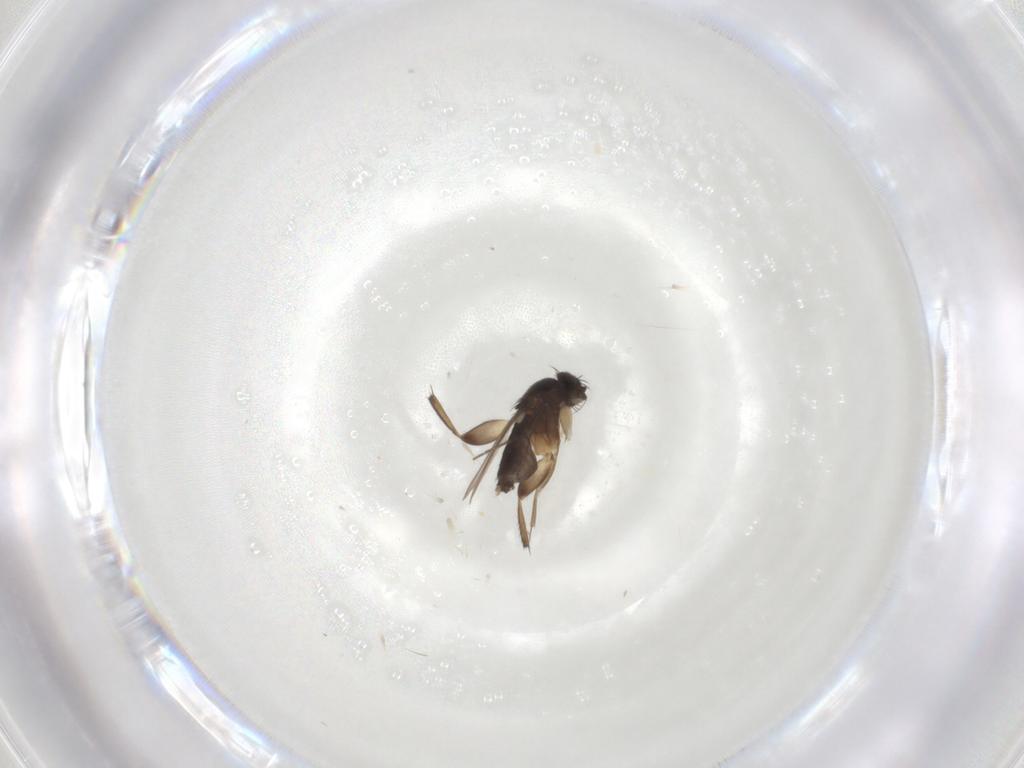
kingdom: Animalia
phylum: Arthropoda
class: Insecta
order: Diptera
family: Phoridae
